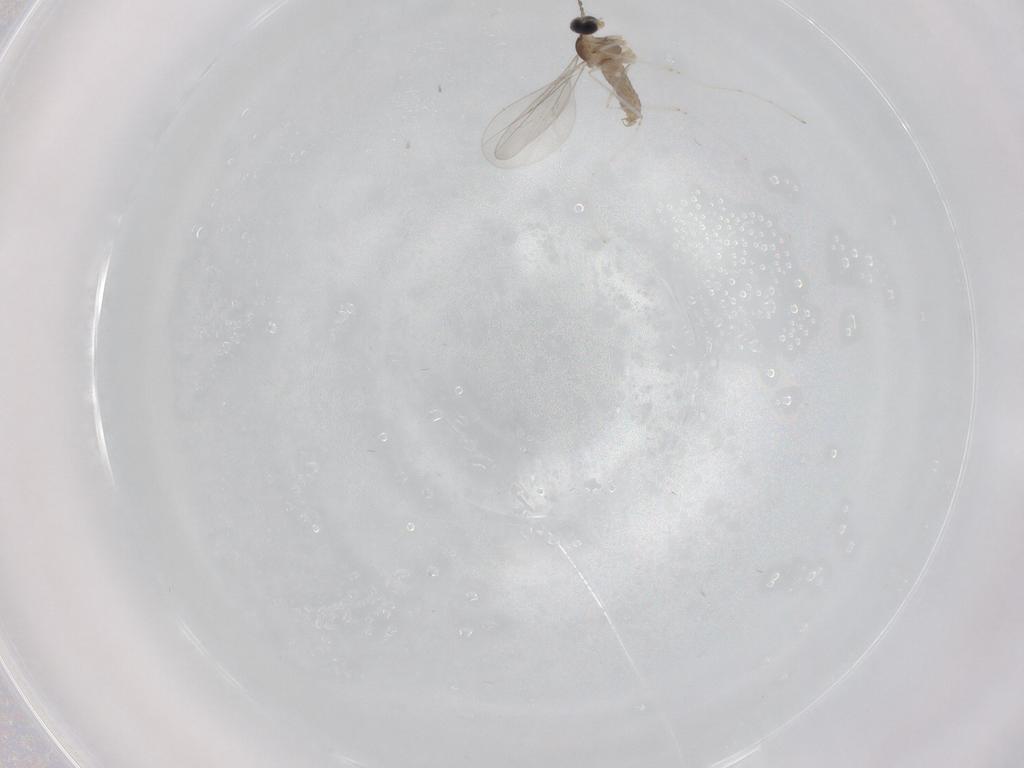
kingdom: Animalia
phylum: Arthropoda
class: Insecta
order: Diptera
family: Cecidomyiidae
